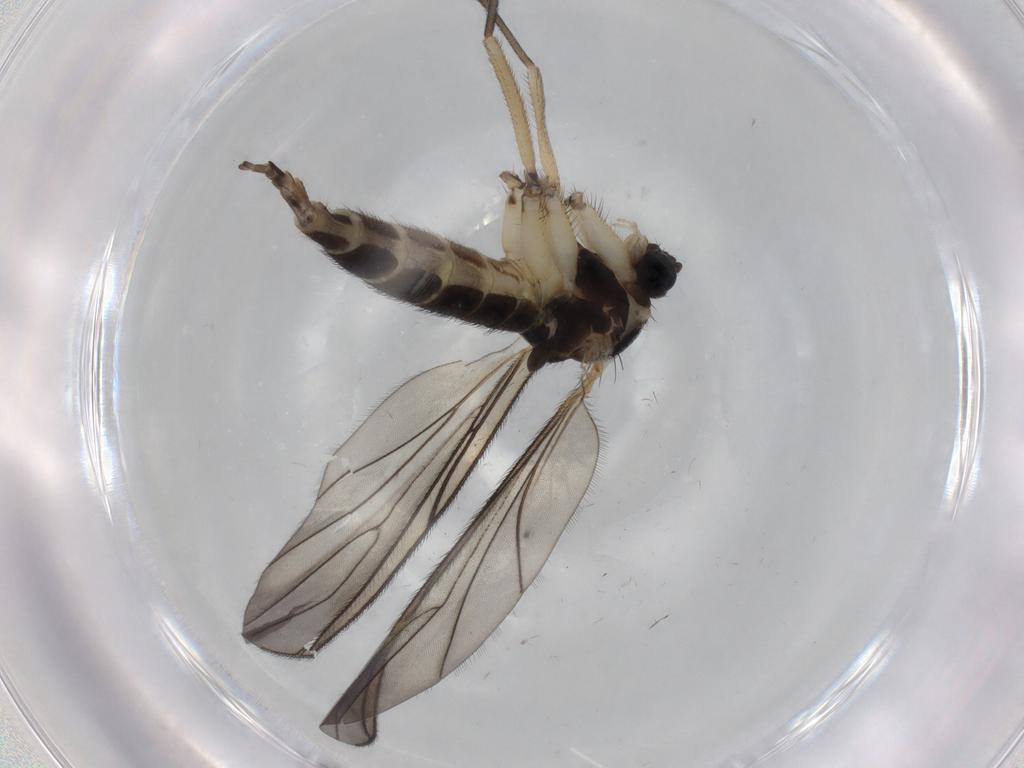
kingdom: Animalia
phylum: Arthropoda
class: Insecta
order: Diptera
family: Sciaridae
